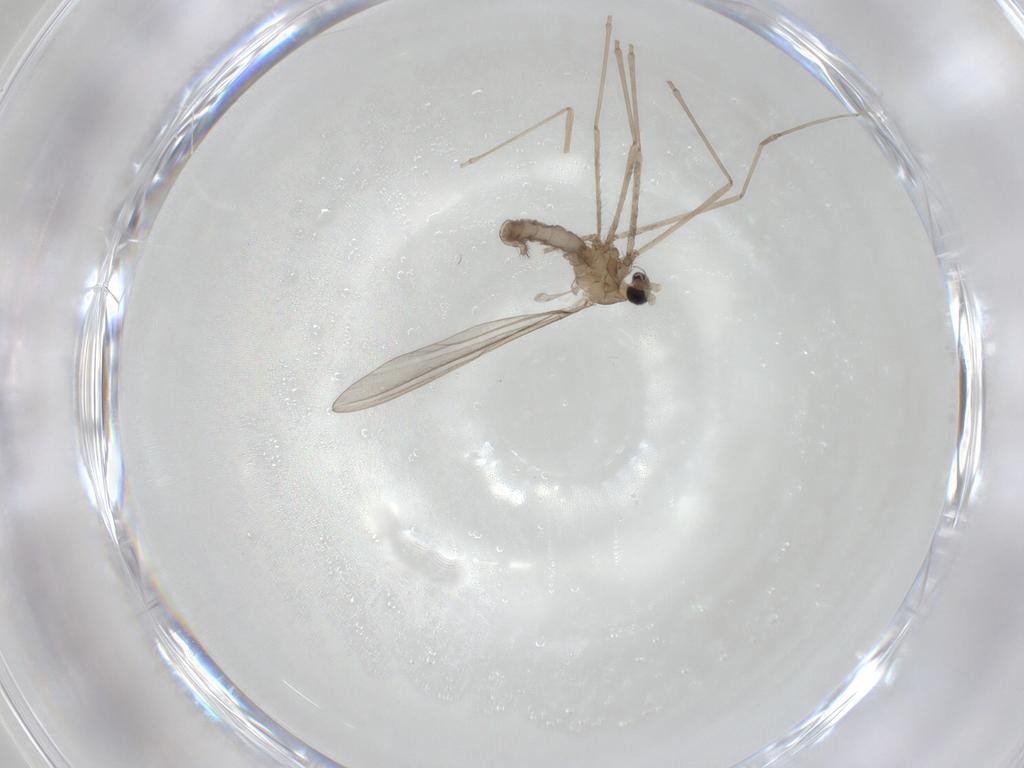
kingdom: Animalia
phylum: Arthropoda
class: Insecta
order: Diptera
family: Cecidomyiidae
